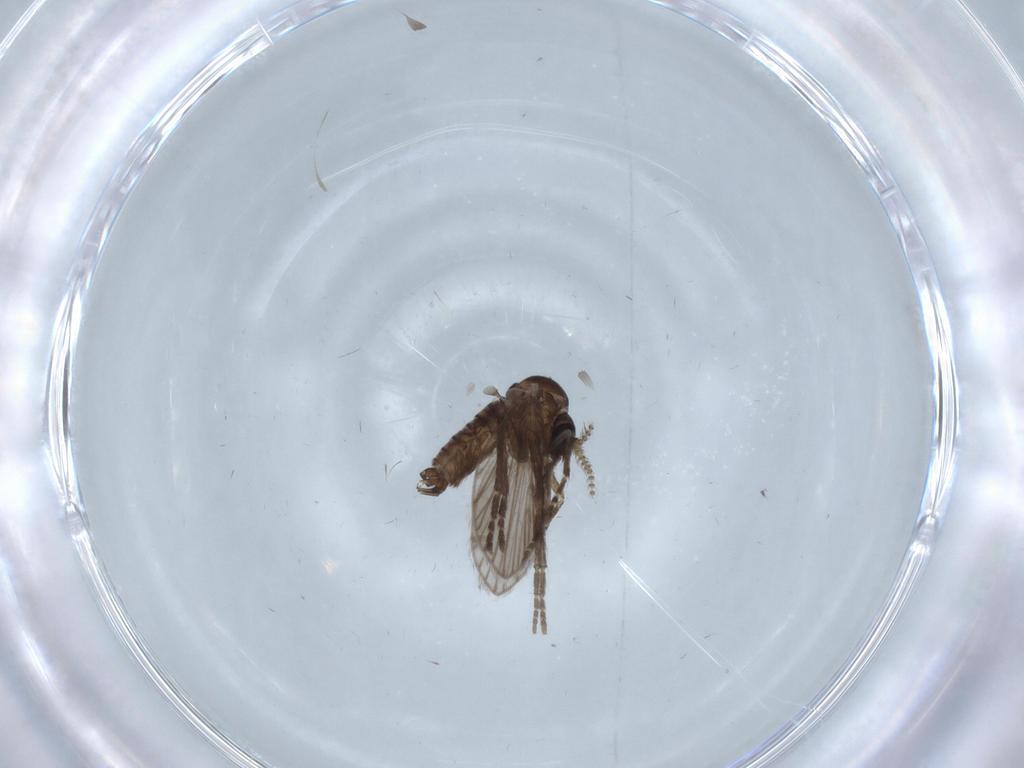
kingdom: Animalia
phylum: Arthropoda
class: Insecta
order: Diptera
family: Sciaridae
